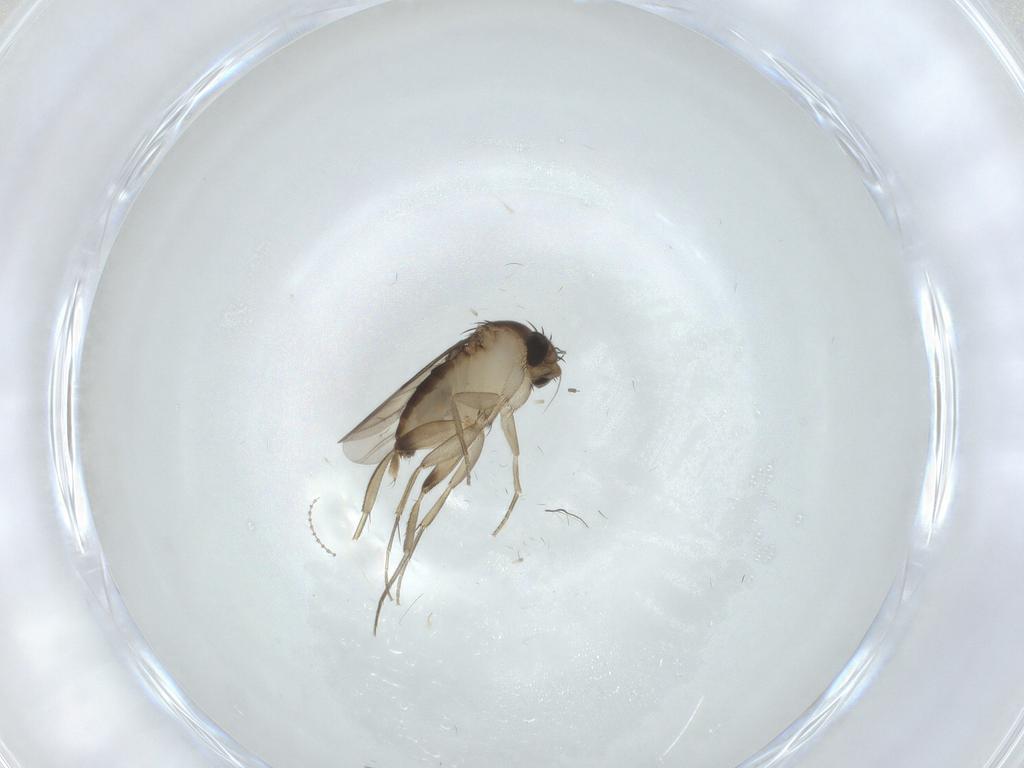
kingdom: Animalia
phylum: Arthropoda
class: Insecta
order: Diptera
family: Phoridae
